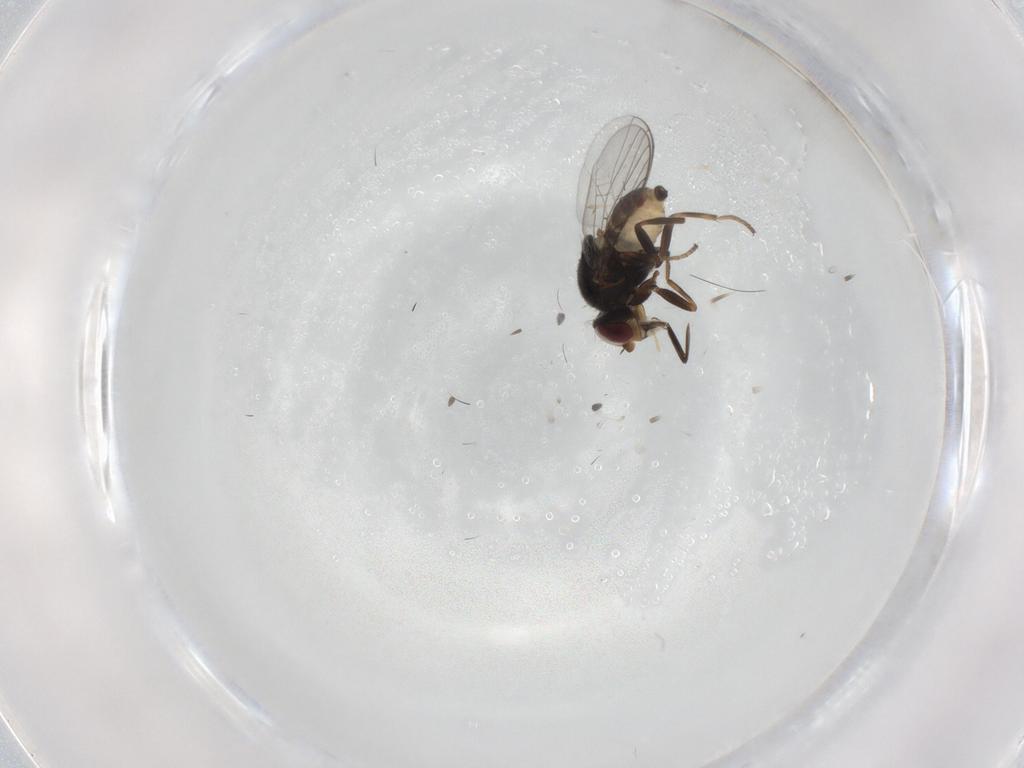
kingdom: Animalia
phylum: Arthropoda
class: Insecta
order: Diptera
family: Chloropidae
